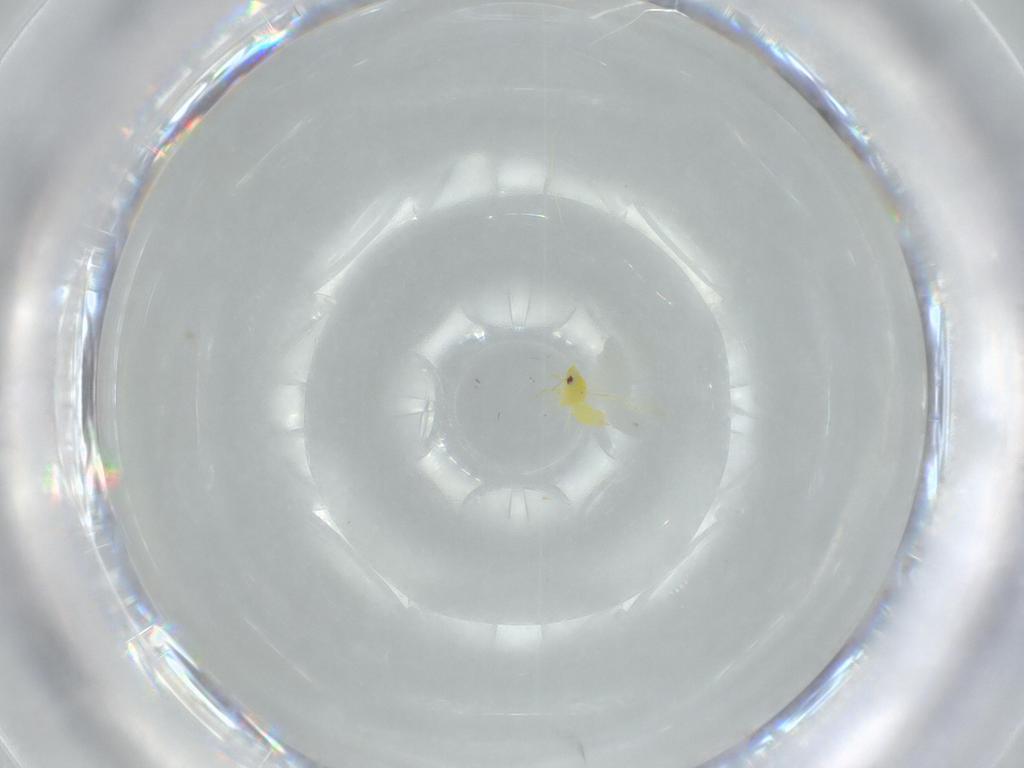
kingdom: Animalia
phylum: Arthropoda
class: Insecta
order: Hemiptera
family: Aleyrodidae
